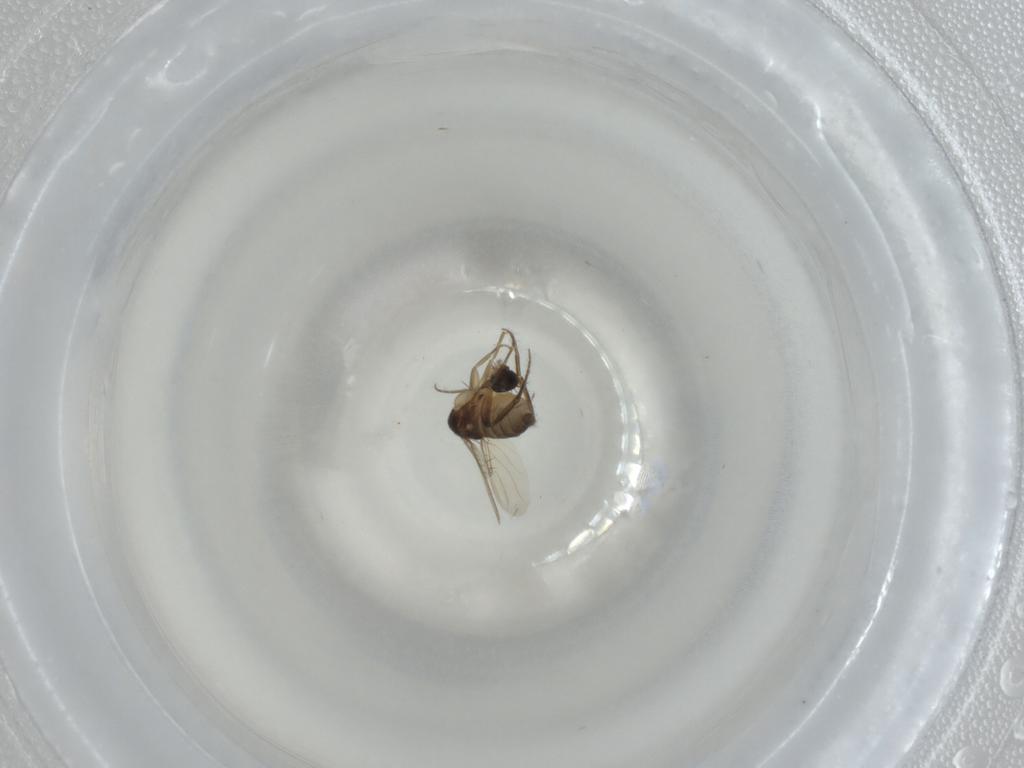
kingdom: Animalia
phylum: Arthropoda
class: Insecta
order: Diptera
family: Phoridae
